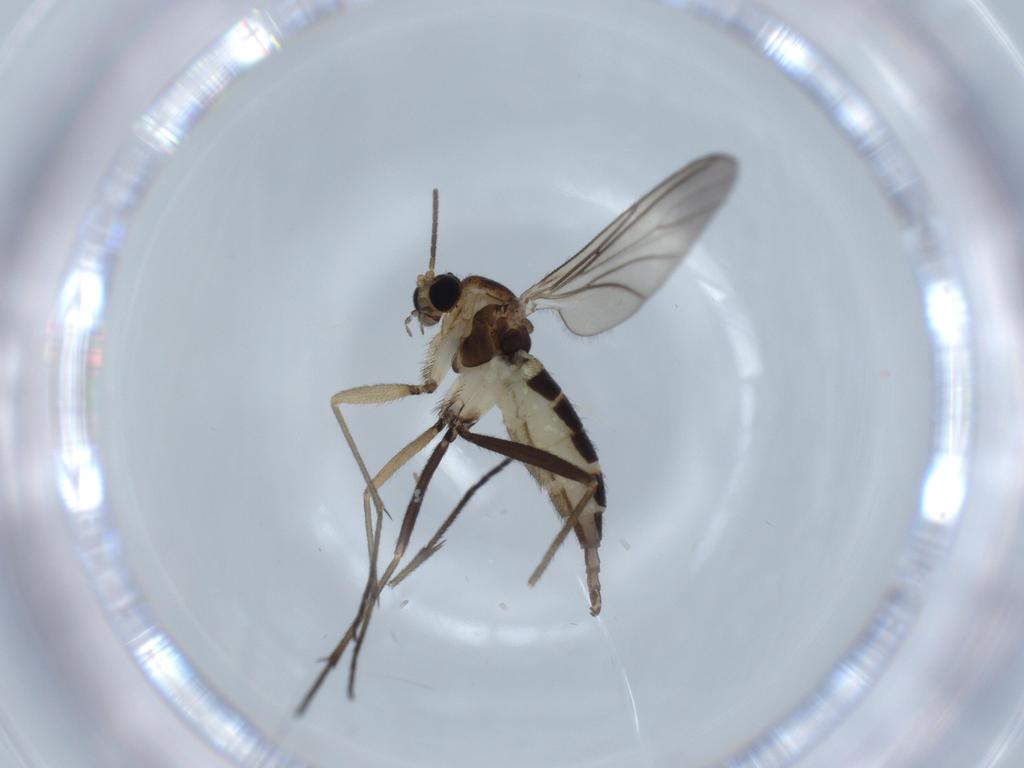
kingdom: Animalia
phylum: Arthropoda
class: Insecta
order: Diptera
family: Sciaridae
